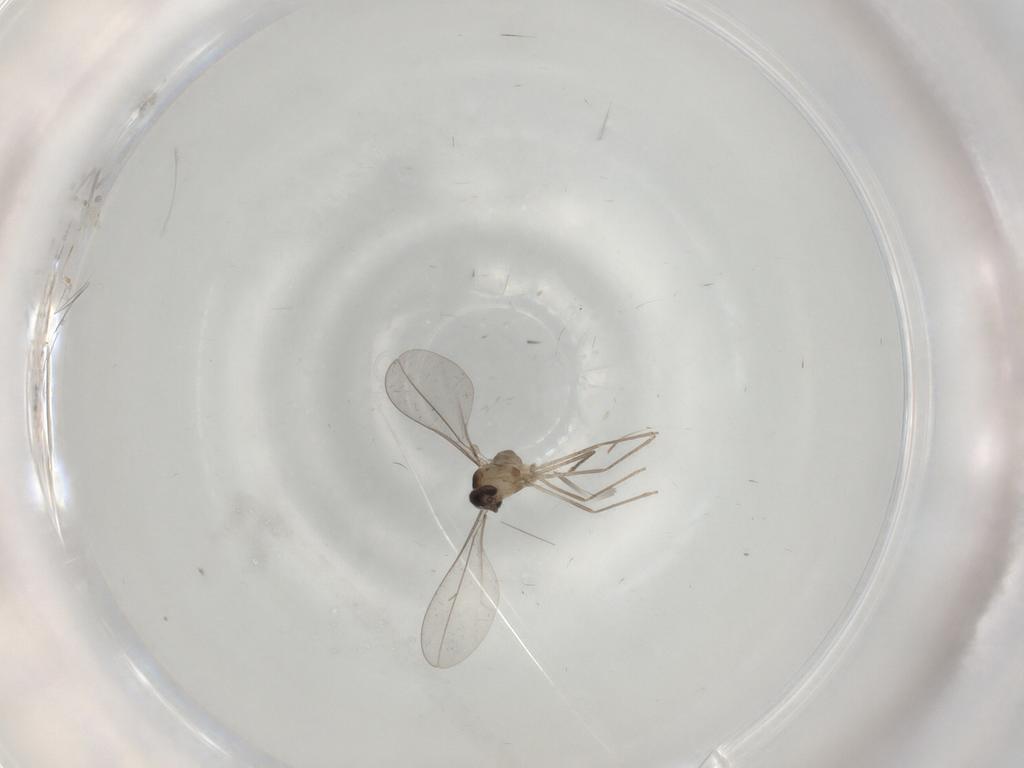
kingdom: Animalia
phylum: Arthropoda
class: Insecta
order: Diptera
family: Cecidomyiidae
